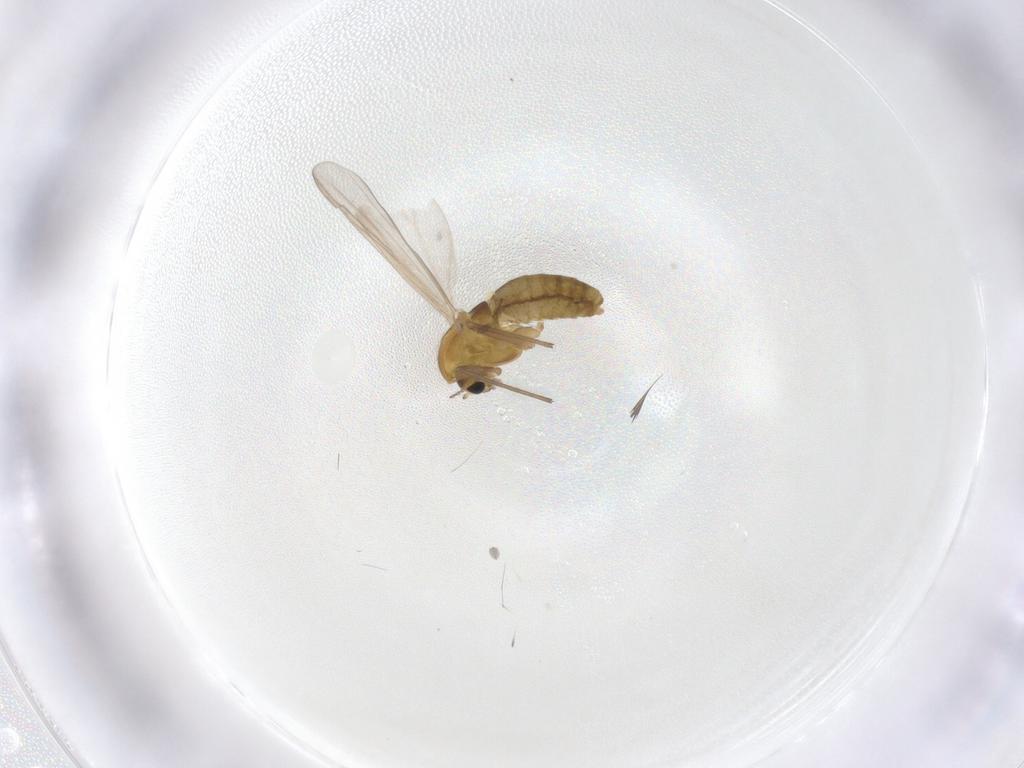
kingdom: Animalia
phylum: Arthropoda
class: Insecta
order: Diptera
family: Chironomidae
